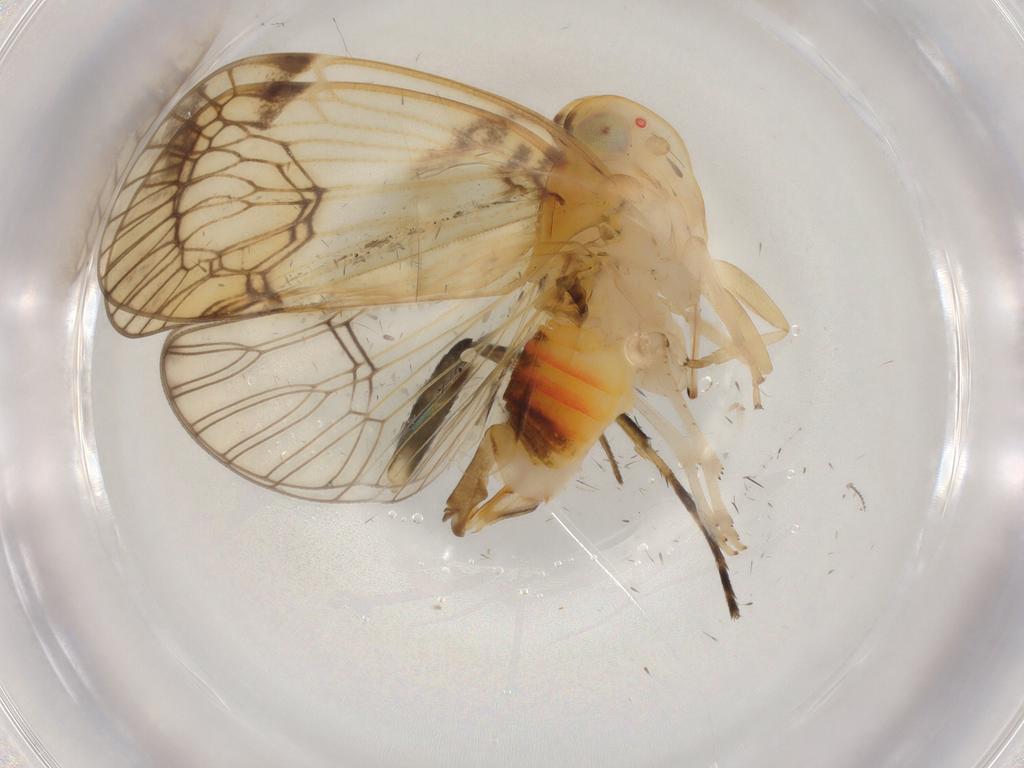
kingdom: Animalia
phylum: Arthropoda
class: Insecta
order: Hemiptera
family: Cixiidae
